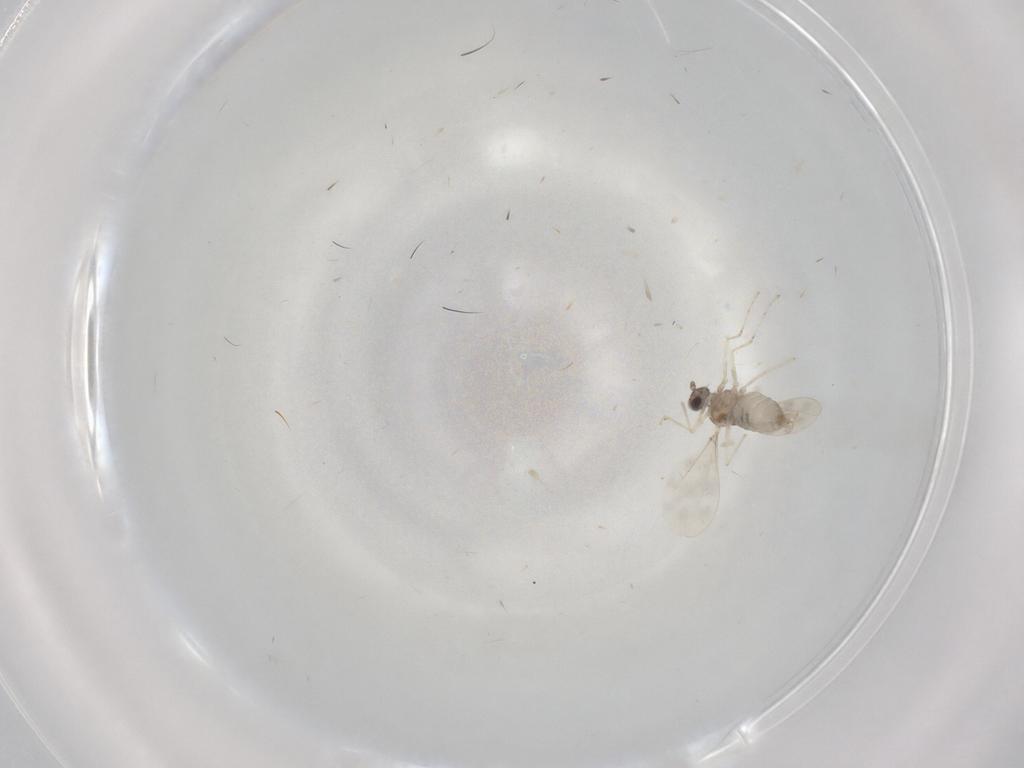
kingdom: Animalia
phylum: Arthropoda
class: Insecta
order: Diptera
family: Cecidomyiidae
